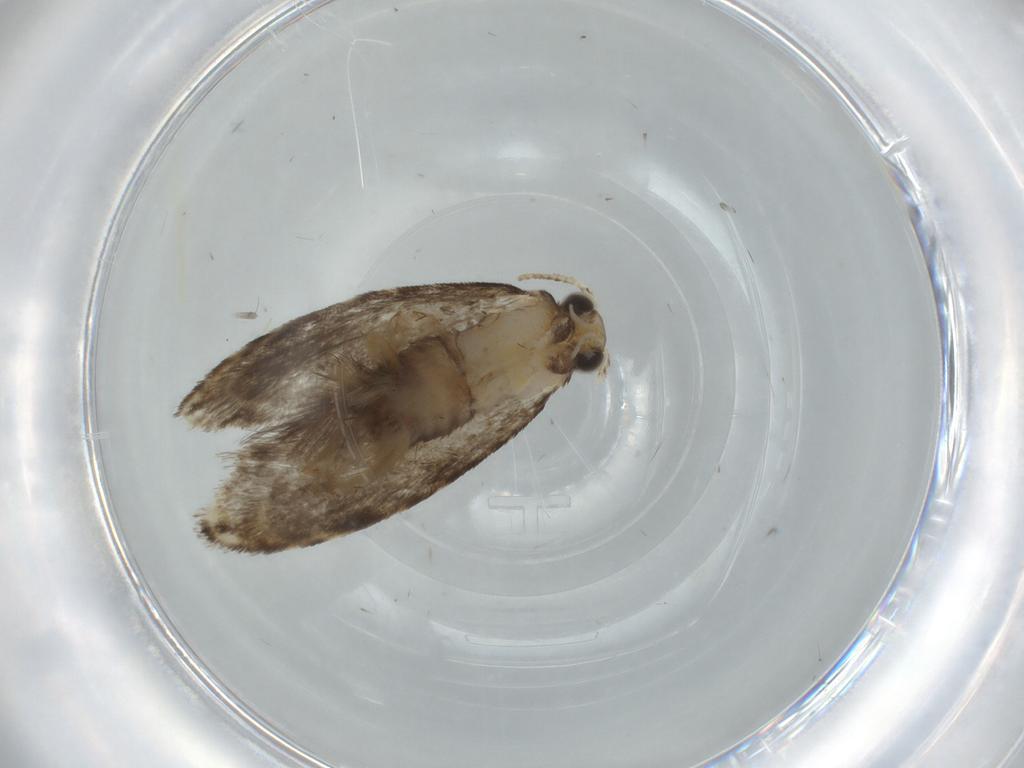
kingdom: Animalia
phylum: Arthropoda
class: Insecta
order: Lepidoptera
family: Tineidae
